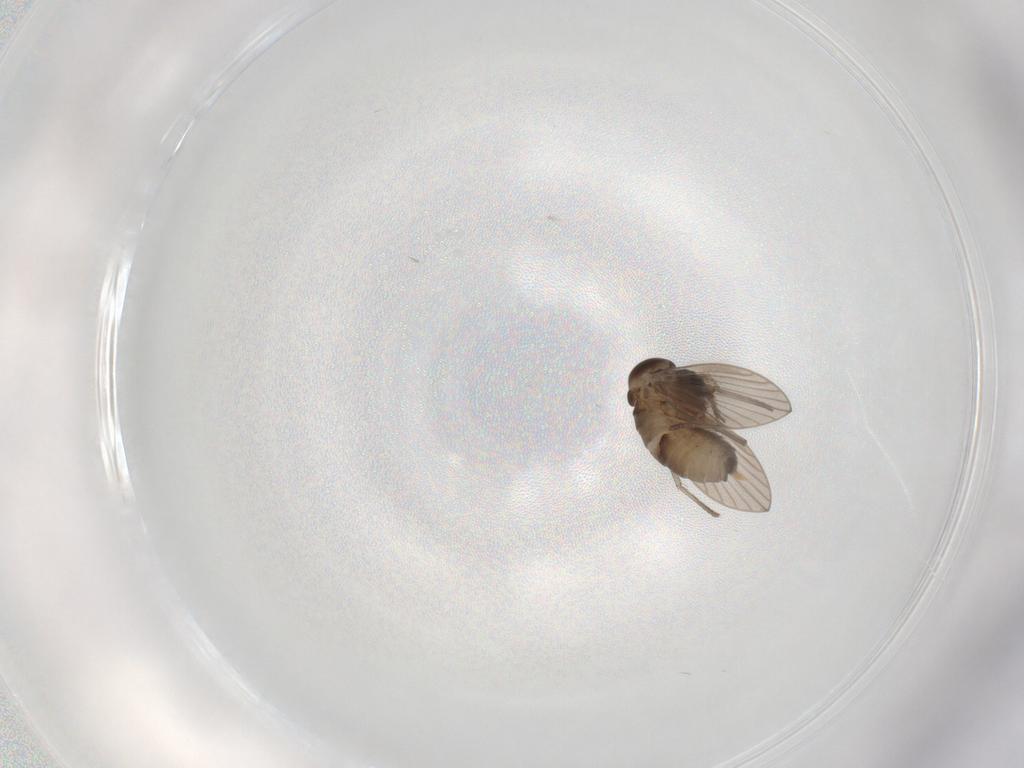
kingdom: Animalia
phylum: Arthropoda
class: Insecta
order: Diptera
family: Psychodidae
